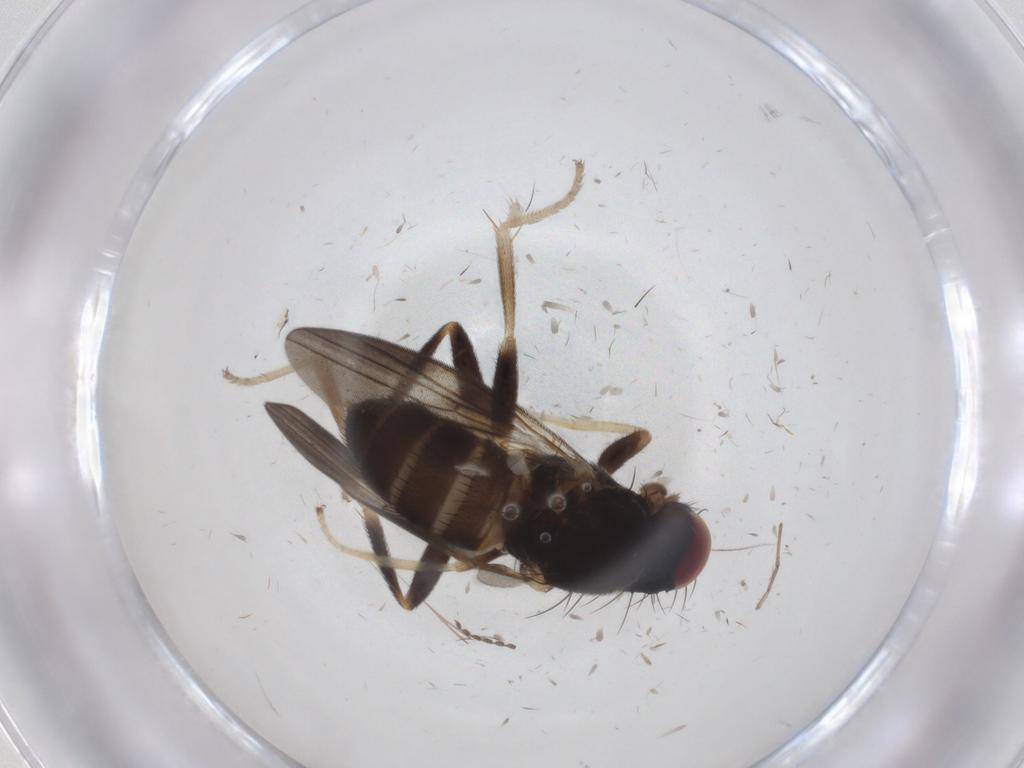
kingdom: Animalia
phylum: Arthropoda
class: Insecta
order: Diptera
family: Clusiidae
